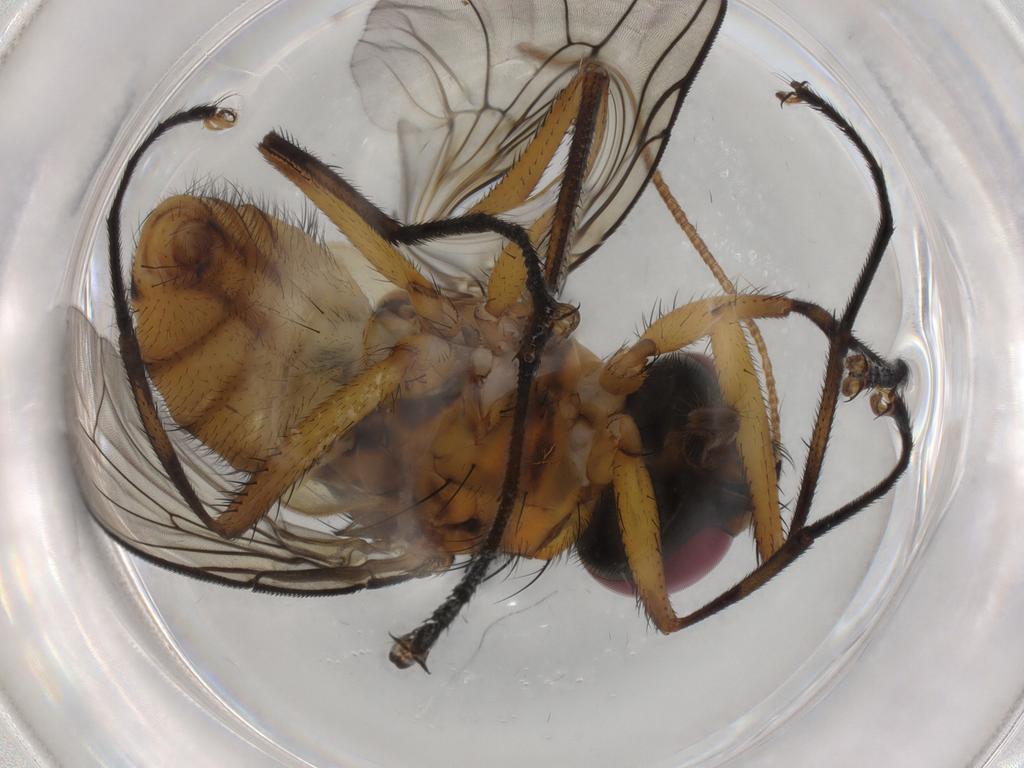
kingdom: Animalia
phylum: Arthropoda
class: Insecta
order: Diptera
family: Phoridae
